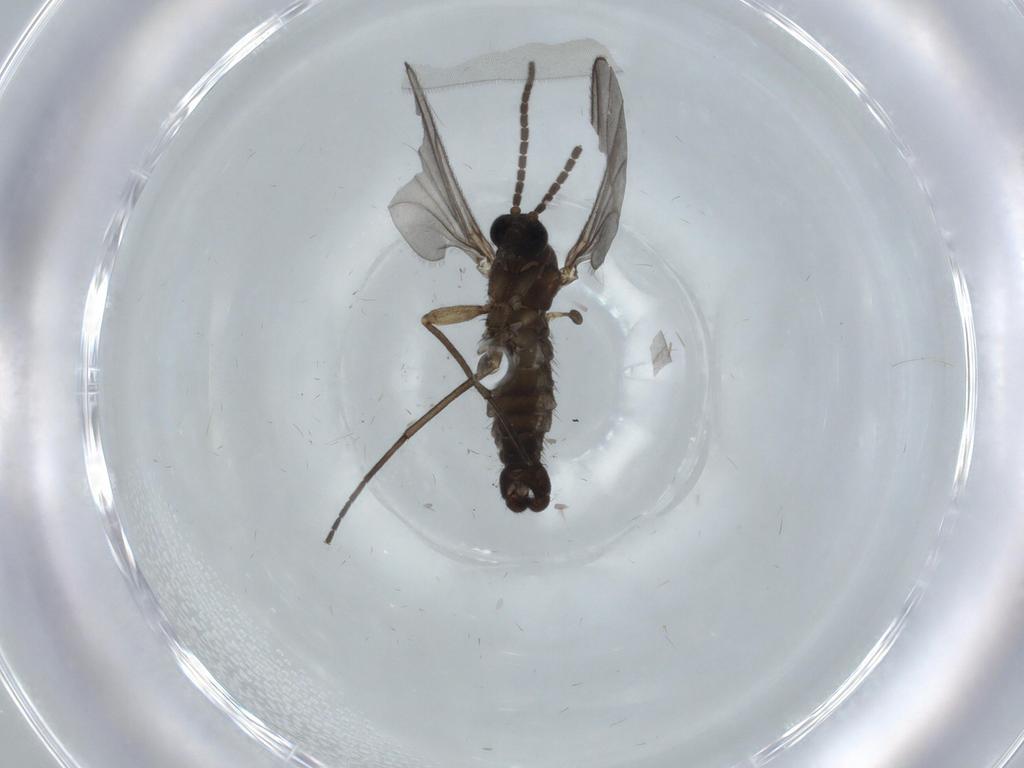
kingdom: Animalia
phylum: Arthropoda
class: Insecta
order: Diptera
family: Sciaridae
